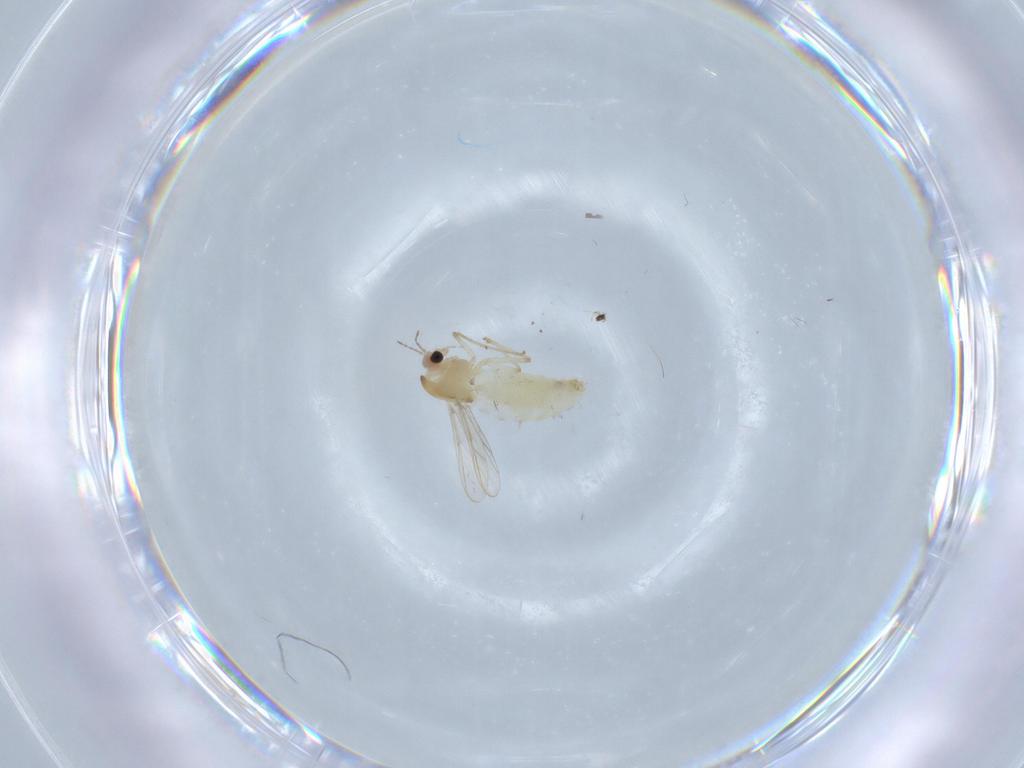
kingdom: Animalia
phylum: Arthropoda
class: Insecta
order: Diptera
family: Chironomidae
